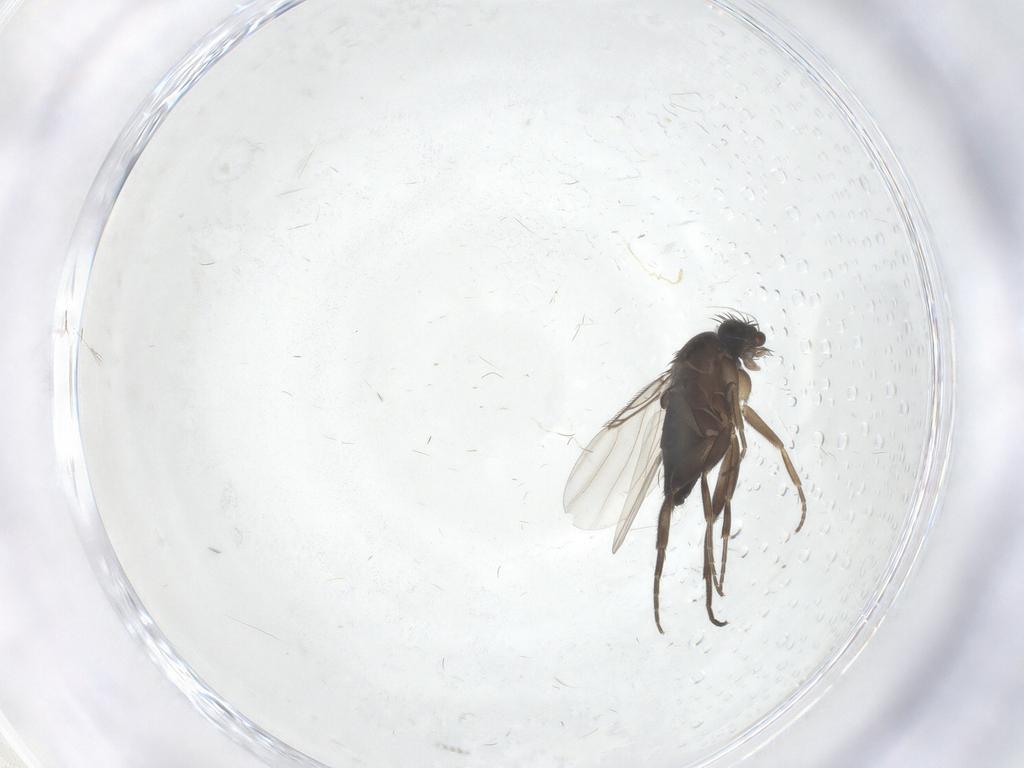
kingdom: Animalia
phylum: Arthropoda
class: Insecta
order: Diptera
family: Phoridae
